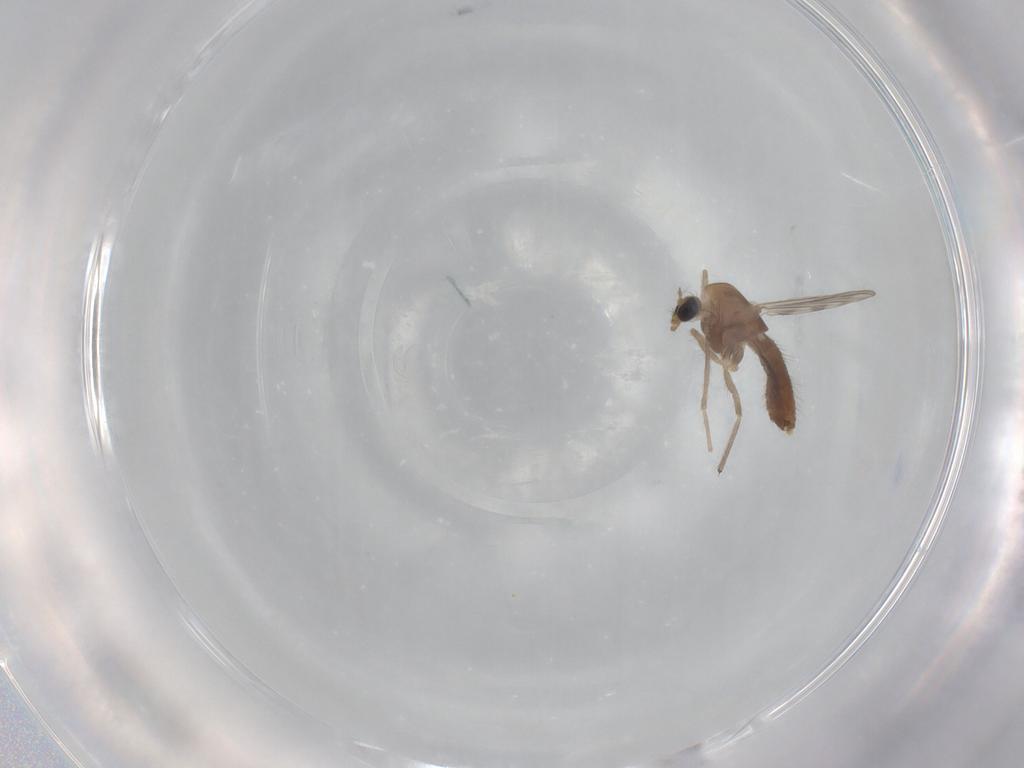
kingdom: Animalia
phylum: Arthropoda
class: Insecta
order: Diptera
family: Chironomidae
